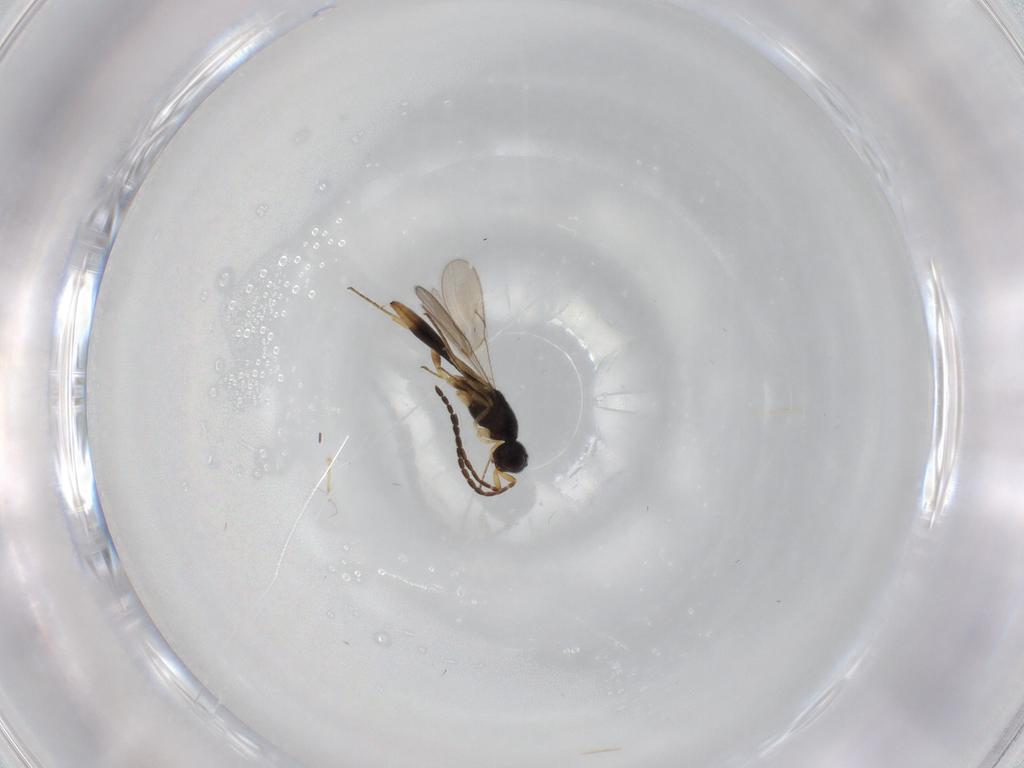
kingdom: Animalia
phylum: Arthropoda
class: Insecta
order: Hymenoptera
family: Scelionidae
